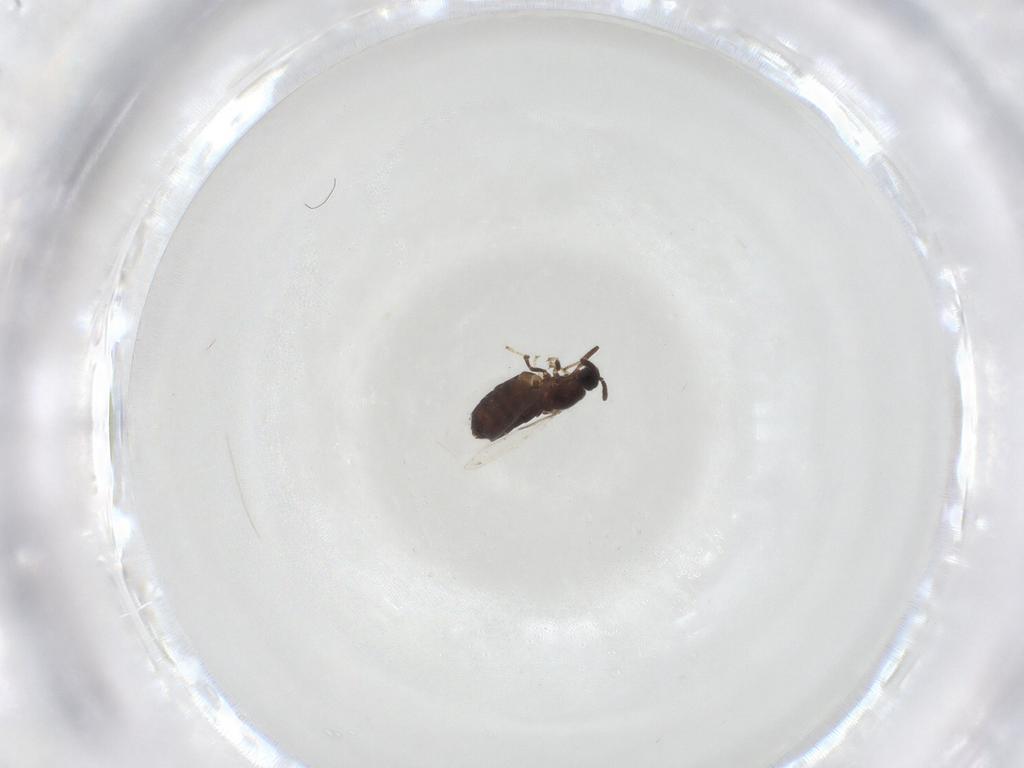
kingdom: Animalia
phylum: Arthropoda
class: Insecta
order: Diptera
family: Scatopsidae
